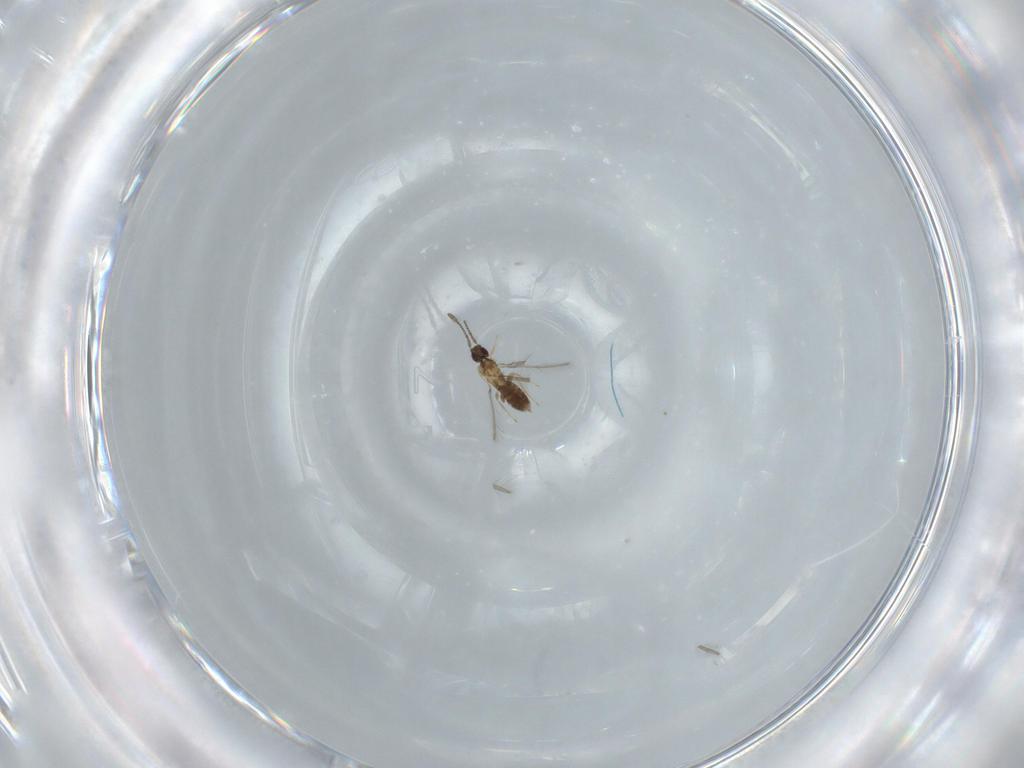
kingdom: Animalia
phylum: Arthropoda
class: Insecta
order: Hymenoptera
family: Mymaridae
